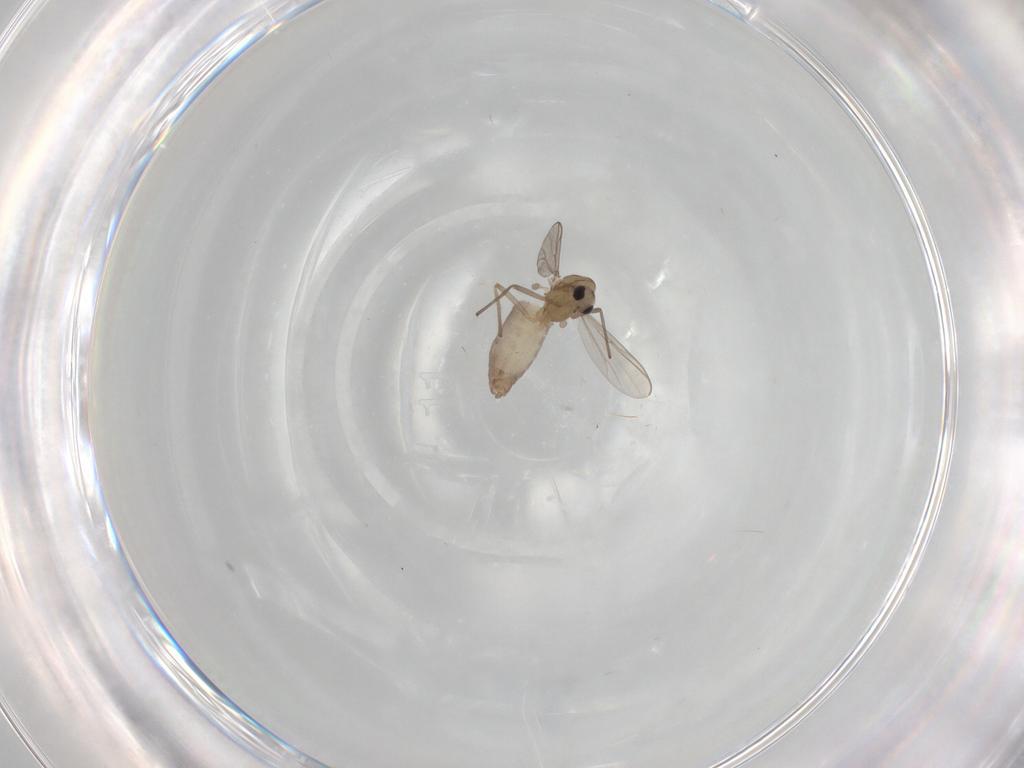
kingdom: Animalia
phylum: Arthropoda
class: Insecta
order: Diptera
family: Chironomidae
